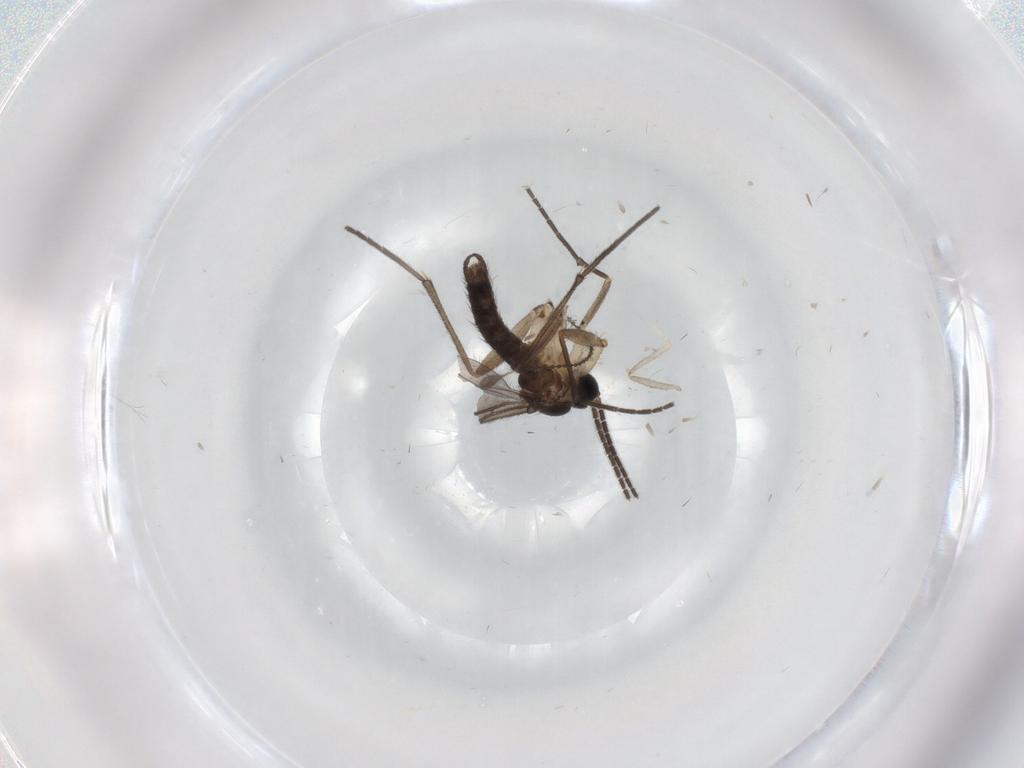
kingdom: Animalia
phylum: Arthropoda
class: Insecta
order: Diptera
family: Sciaridae
